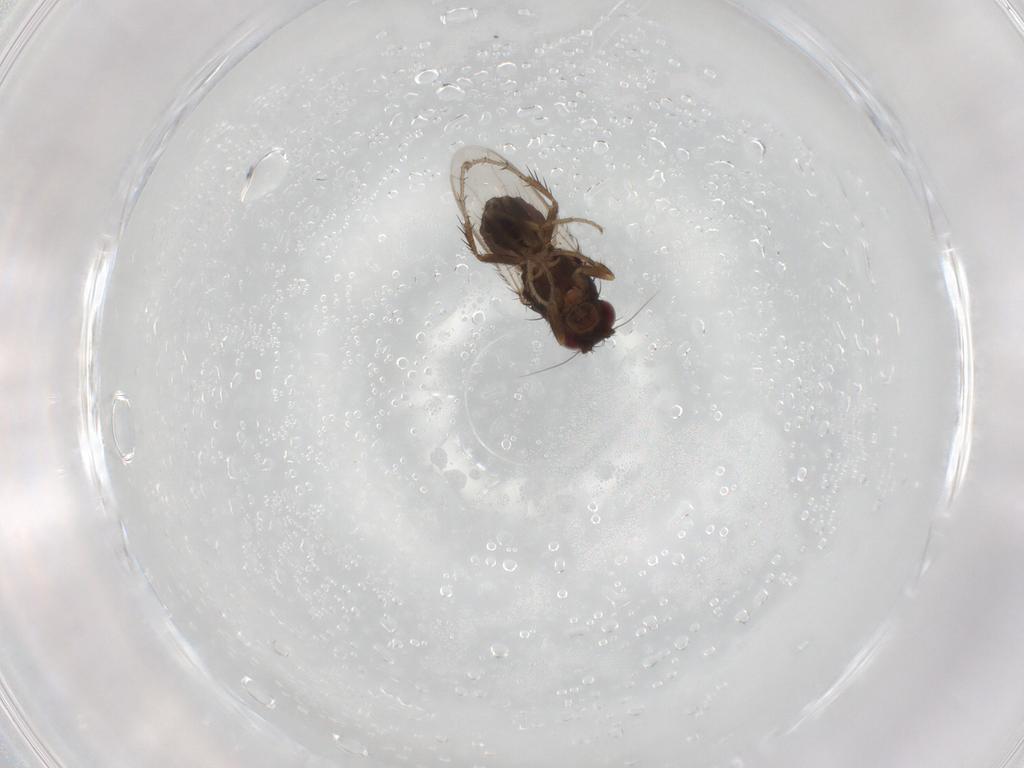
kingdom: Animalia
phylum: Arthropoda
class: Insecta
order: Diptera
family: Sphaeroceridae
